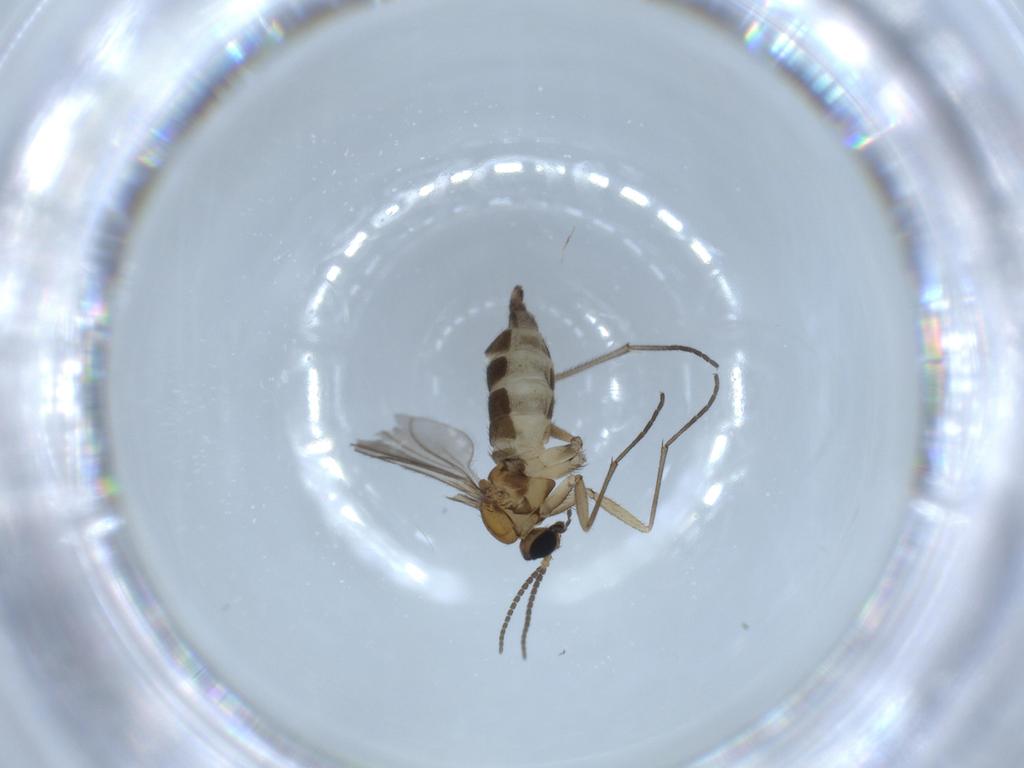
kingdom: Animalia
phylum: Arthropoda
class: Insecta
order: Diptera
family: Sciaridae
